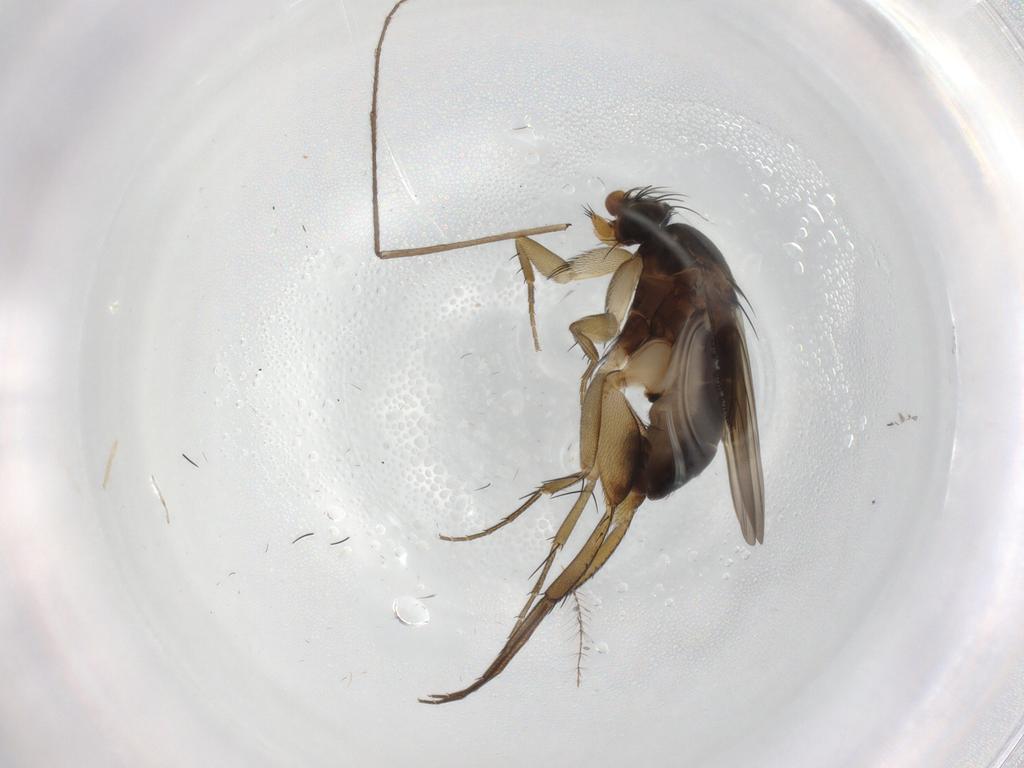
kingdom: Animalia
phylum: Arthropoda
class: Insecta
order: Diptera
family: Phoridae
